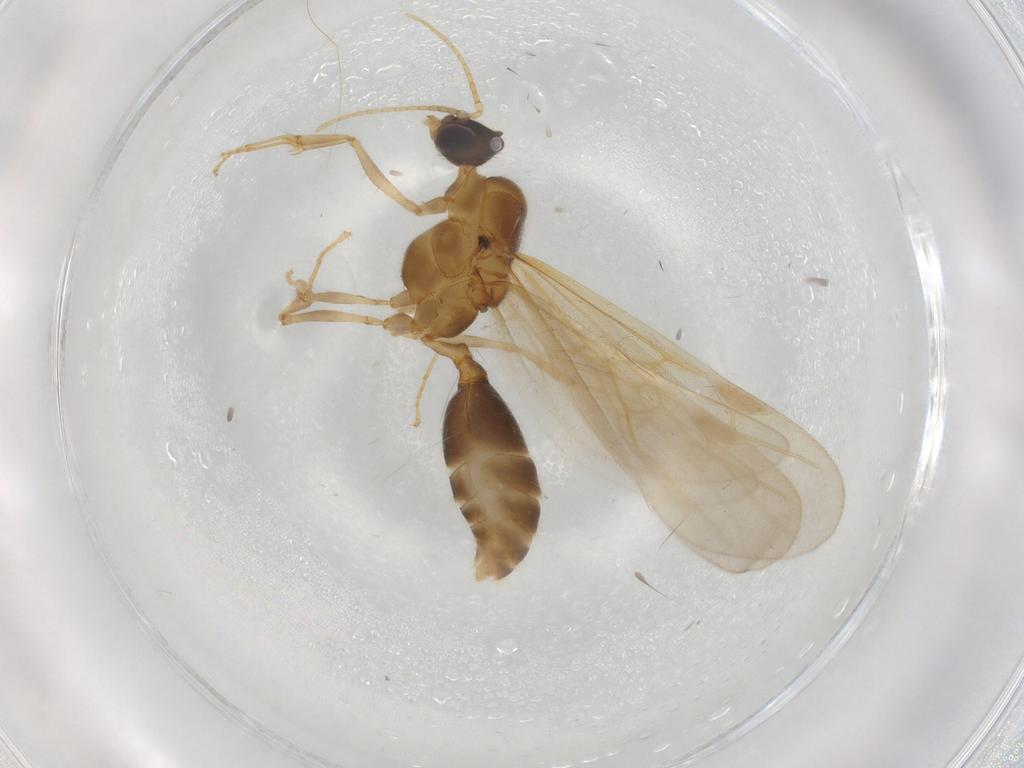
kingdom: Animalia
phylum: Arthropoda
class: Insecta
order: Hymenoptera
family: Formicidae
